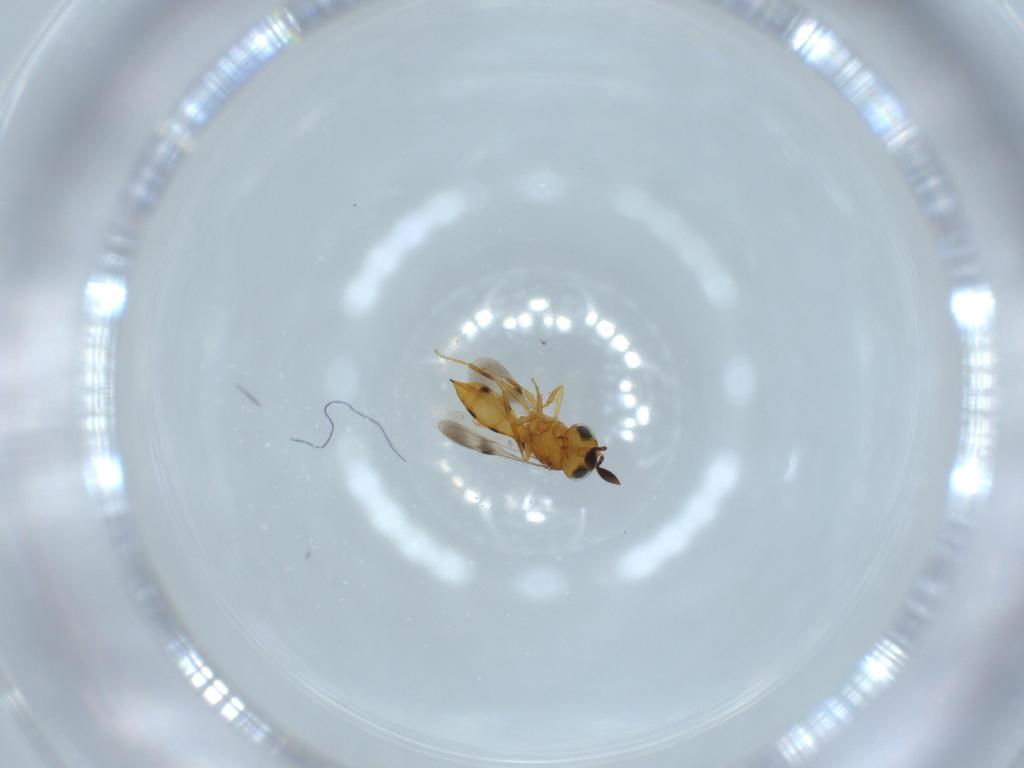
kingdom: Animalia
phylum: Arthropoda
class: Insecta
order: Hymenoptera
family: Scelionidae
